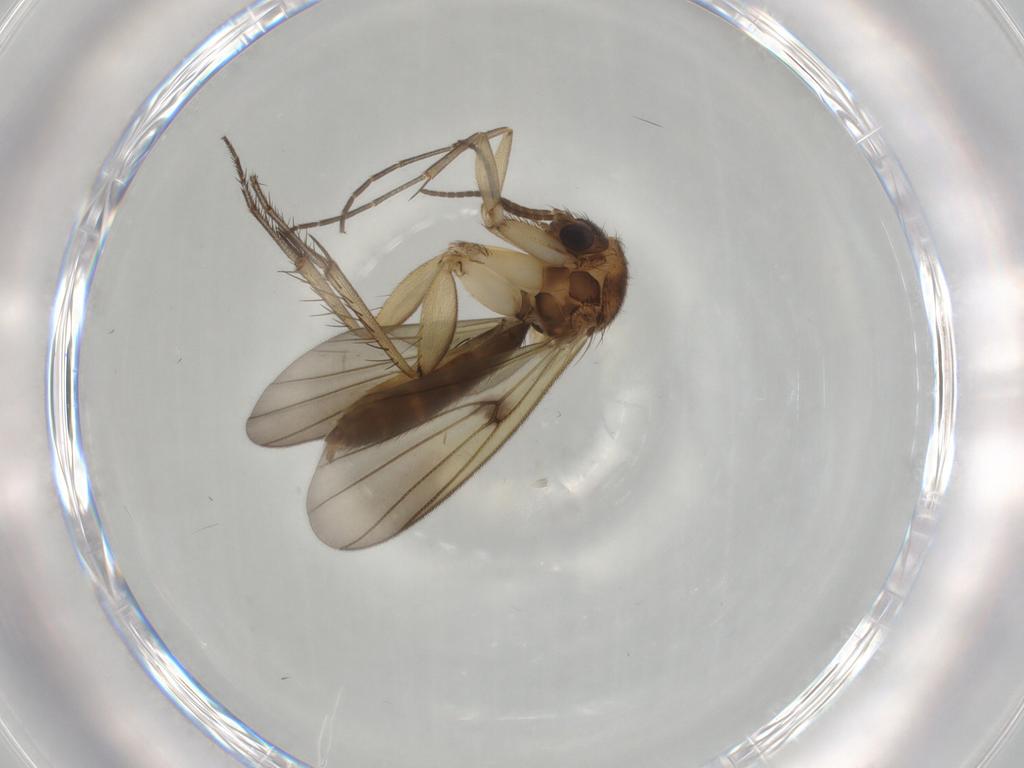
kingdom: Animalia
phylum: Arthropoda
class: Insecta
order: Diptera
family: Mycetophilidae
